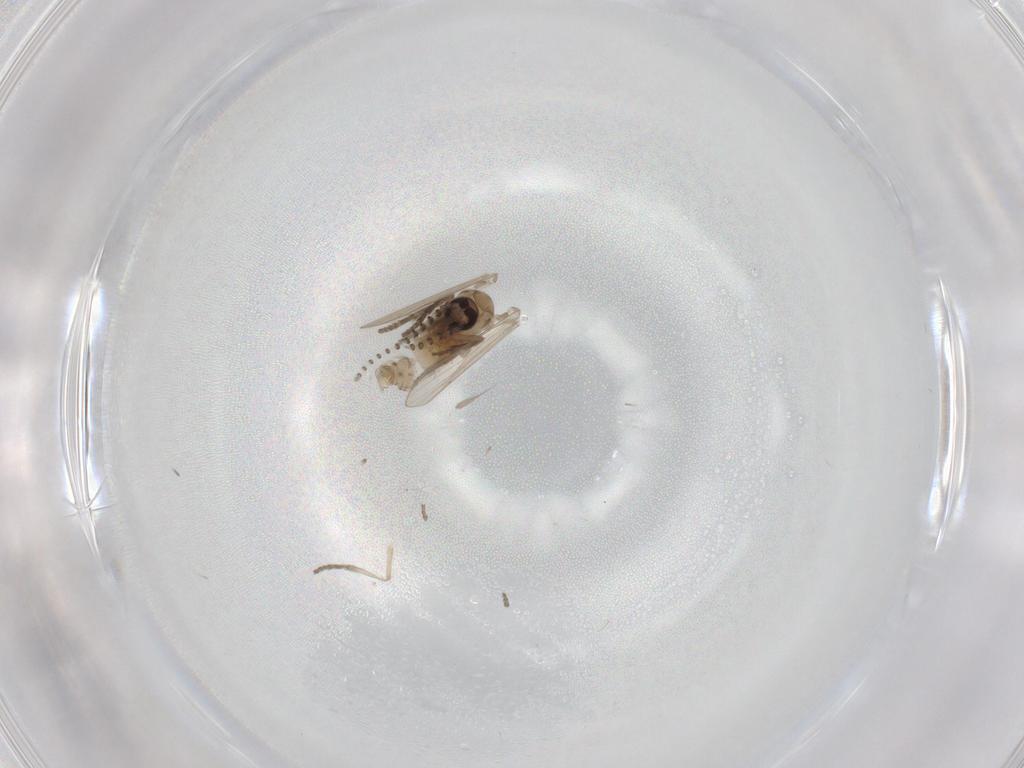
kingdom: Animalia
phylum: Arthropoda
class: Insecta
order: Diptera
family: Psychodidae
